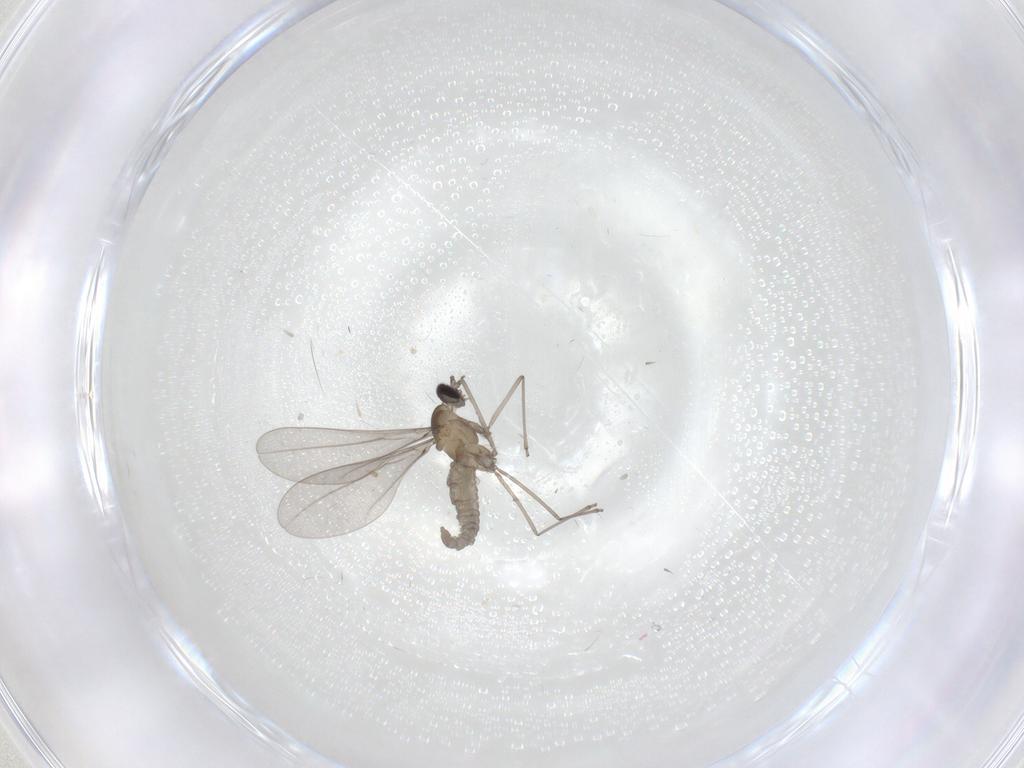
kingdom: Animalia
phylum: Arthropoda
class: Insecta
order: Diptera
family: Cecidomyiidae
